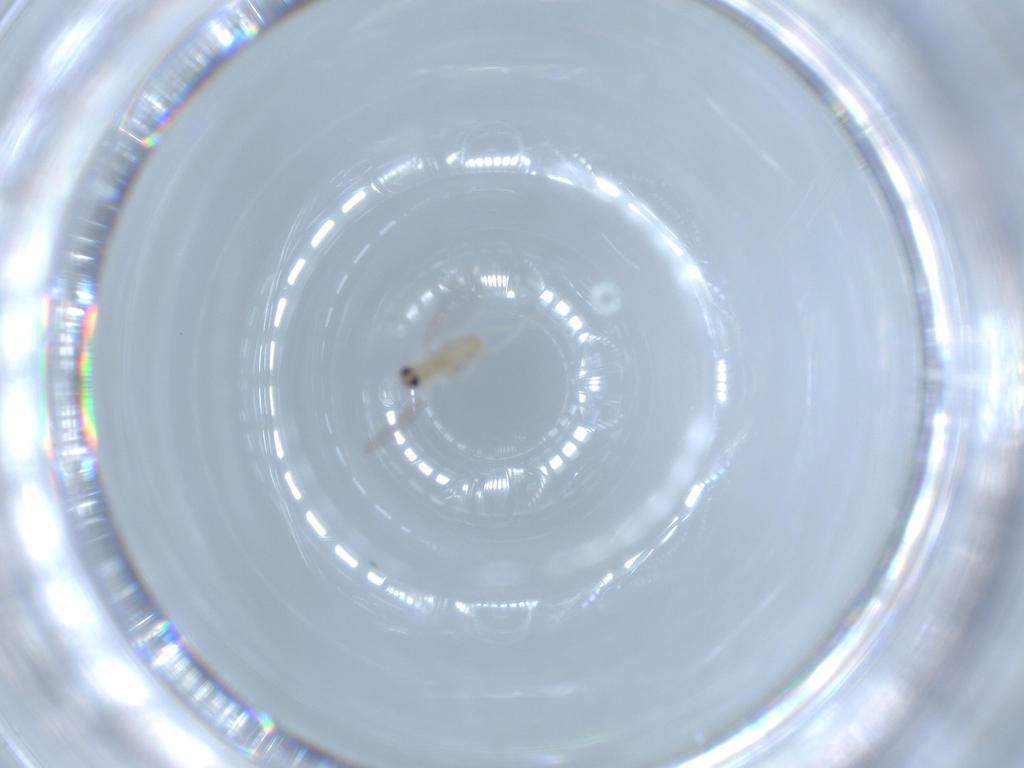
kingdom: Animalia
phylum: Arthropoda
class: Insecta
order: Diptera
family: Cecidomyiidae
